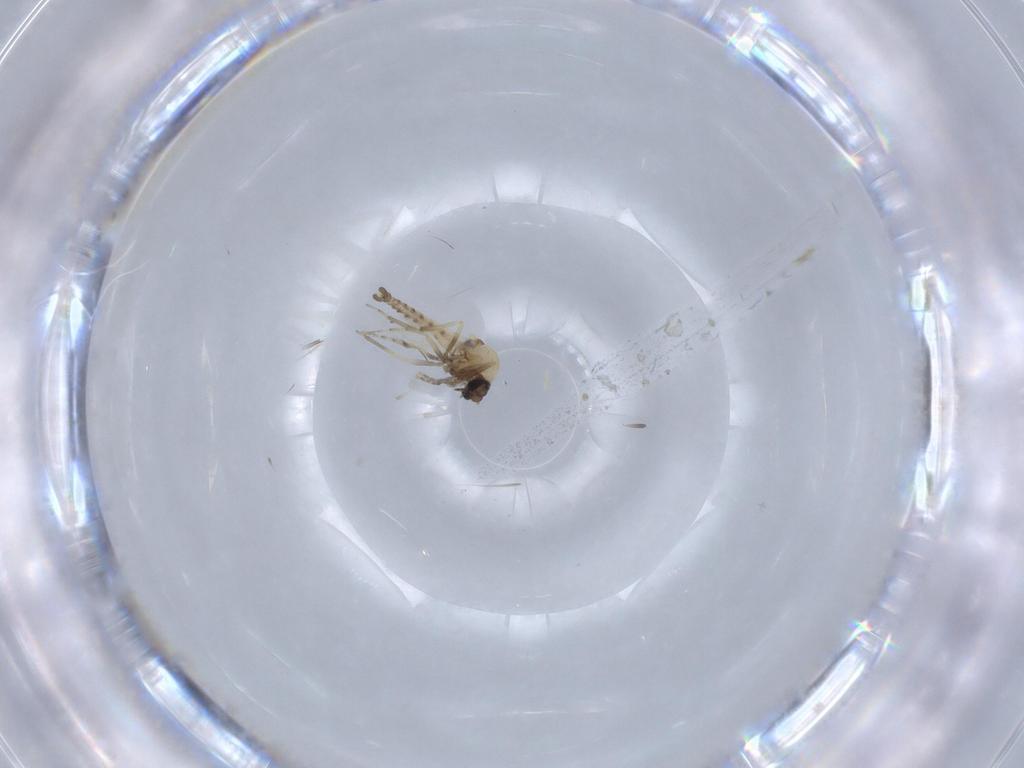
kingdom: Animalia
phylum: Arthropoda
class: Insecta
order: Diptera
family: Ceratopogonidae
